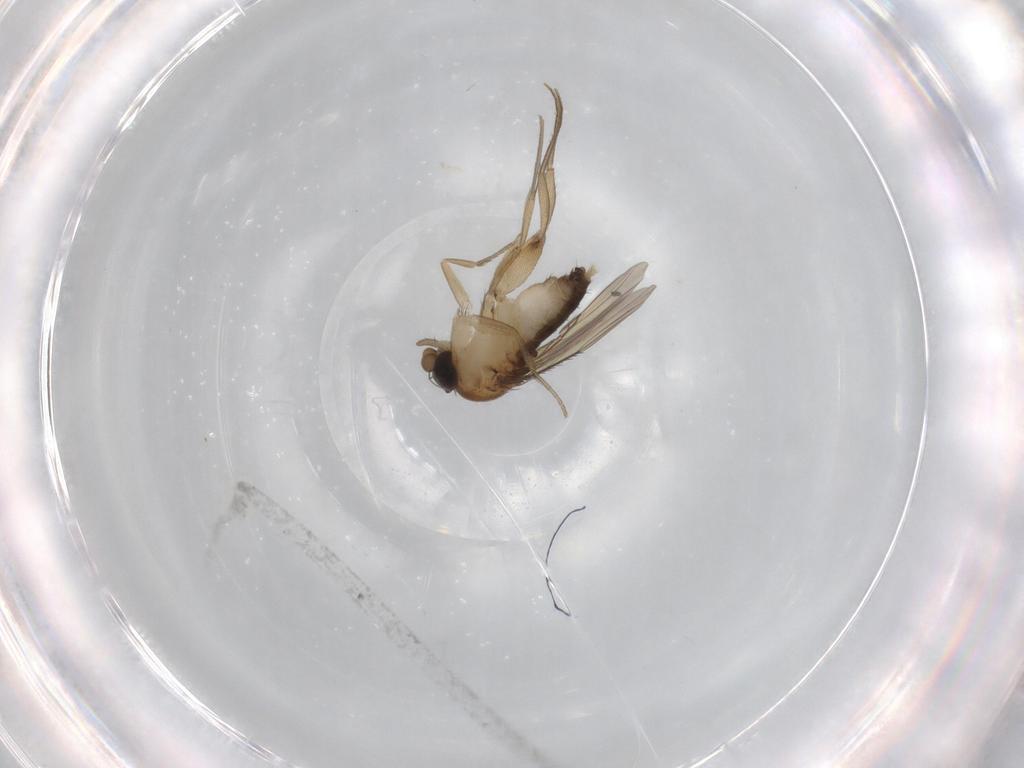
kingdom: Animalia
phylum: Arthropoda
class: Insecta
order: Diptera
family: Phoridae
